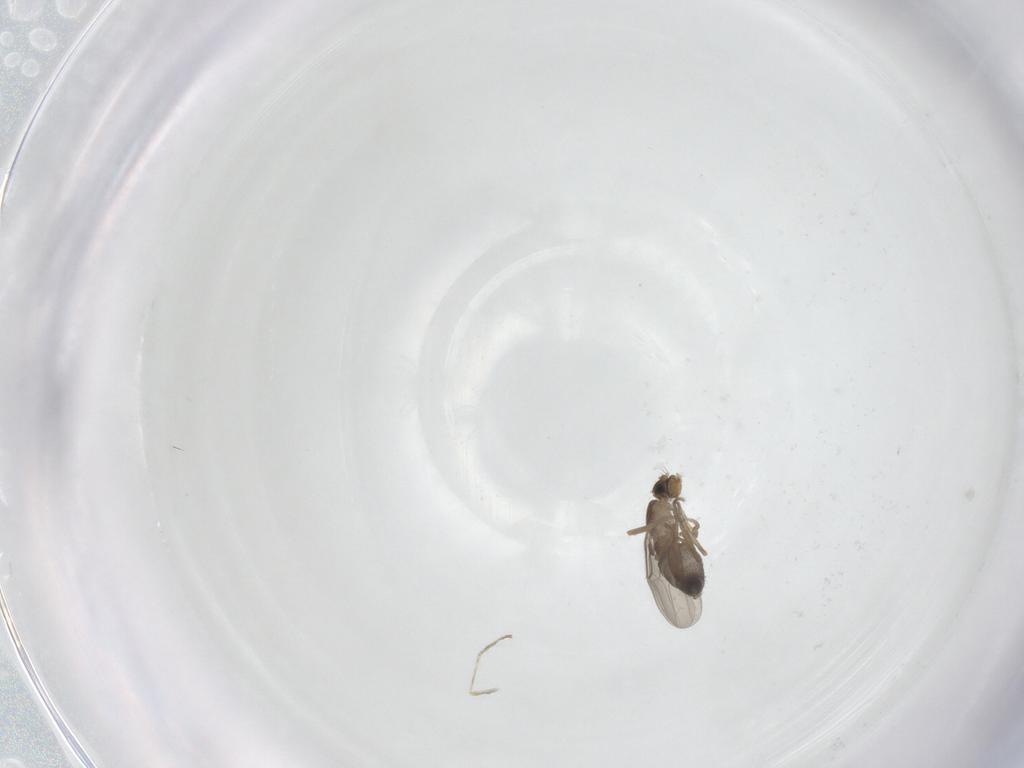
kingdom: Animalia
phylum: Arthropoda
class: Insecta
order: Diptera
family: Phoridae
